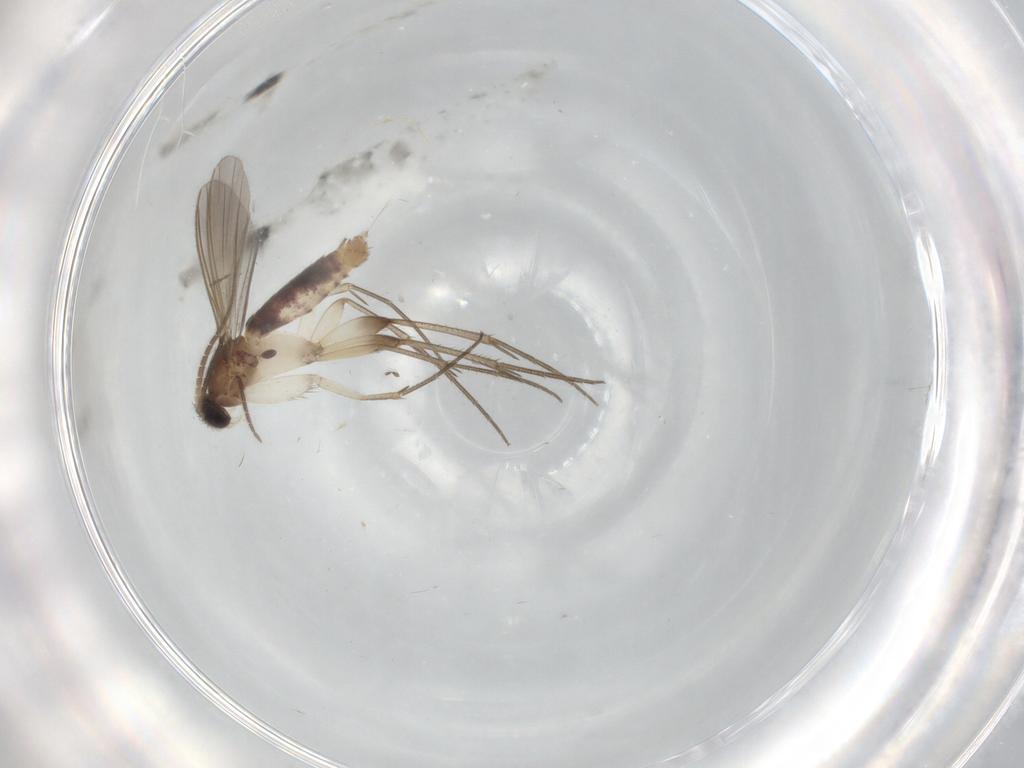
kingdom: Animalia
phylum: Arthropoda
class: Insecta
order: Diptera
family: Mycetophilidae
